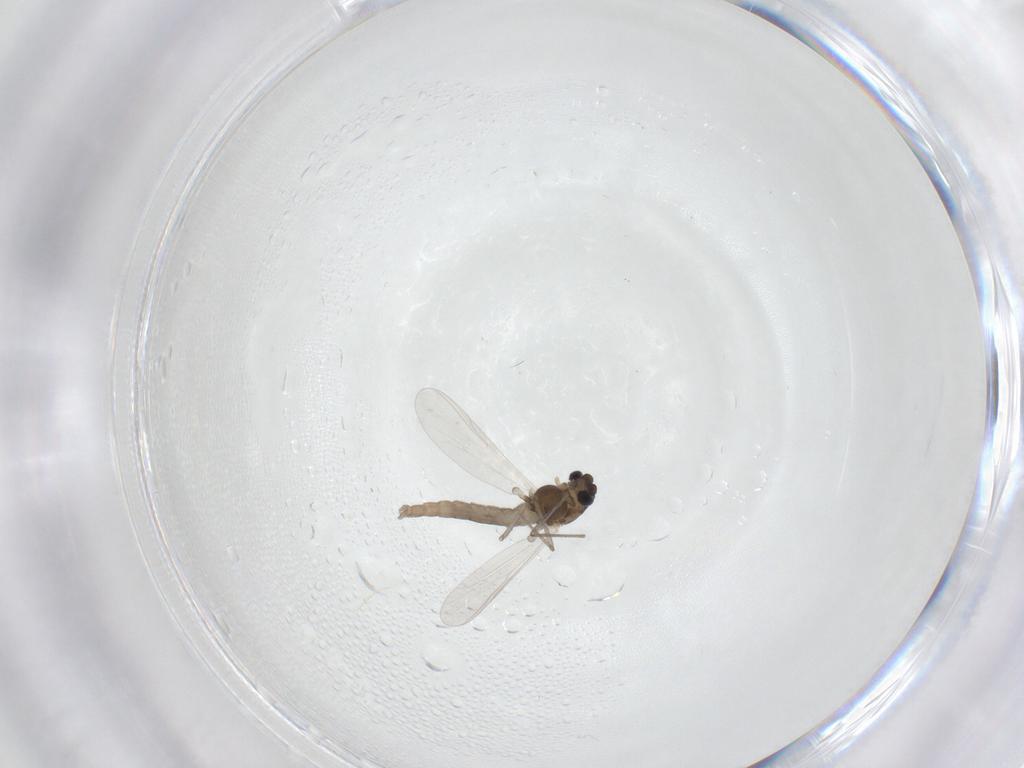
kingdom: Animalia
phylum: Arthropoda
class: Insecta
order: Diptera
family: Chironomidae
